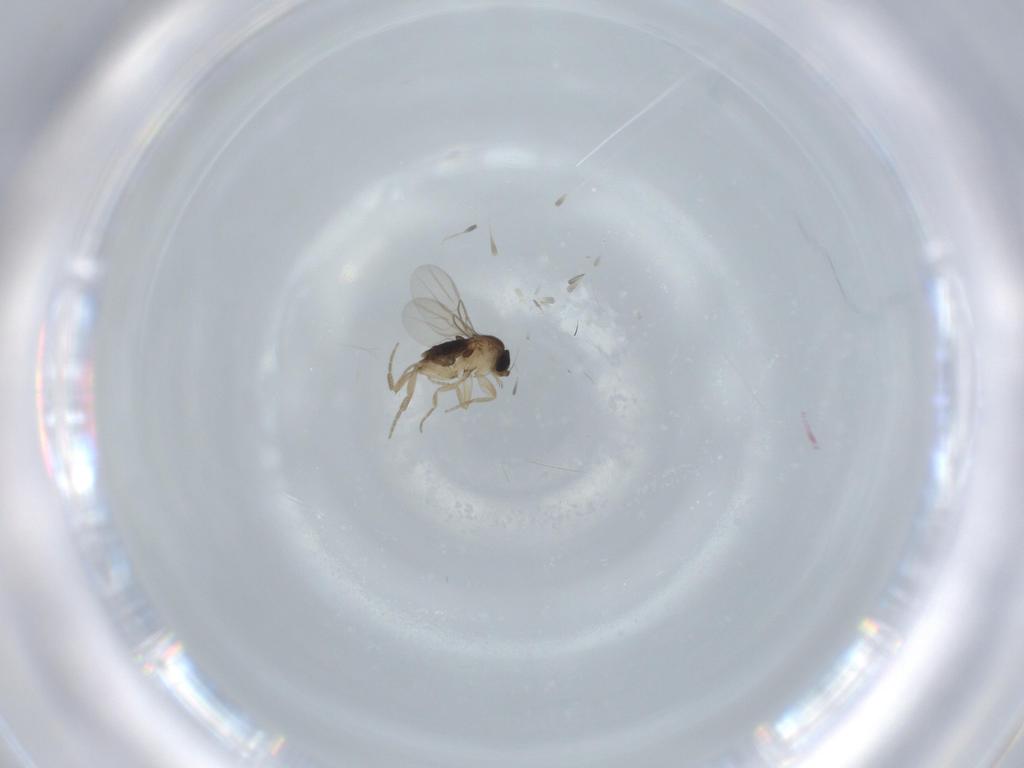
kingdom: Animalia
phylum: Arthropoda
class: Insecta
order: Diptera
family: Phoridae
